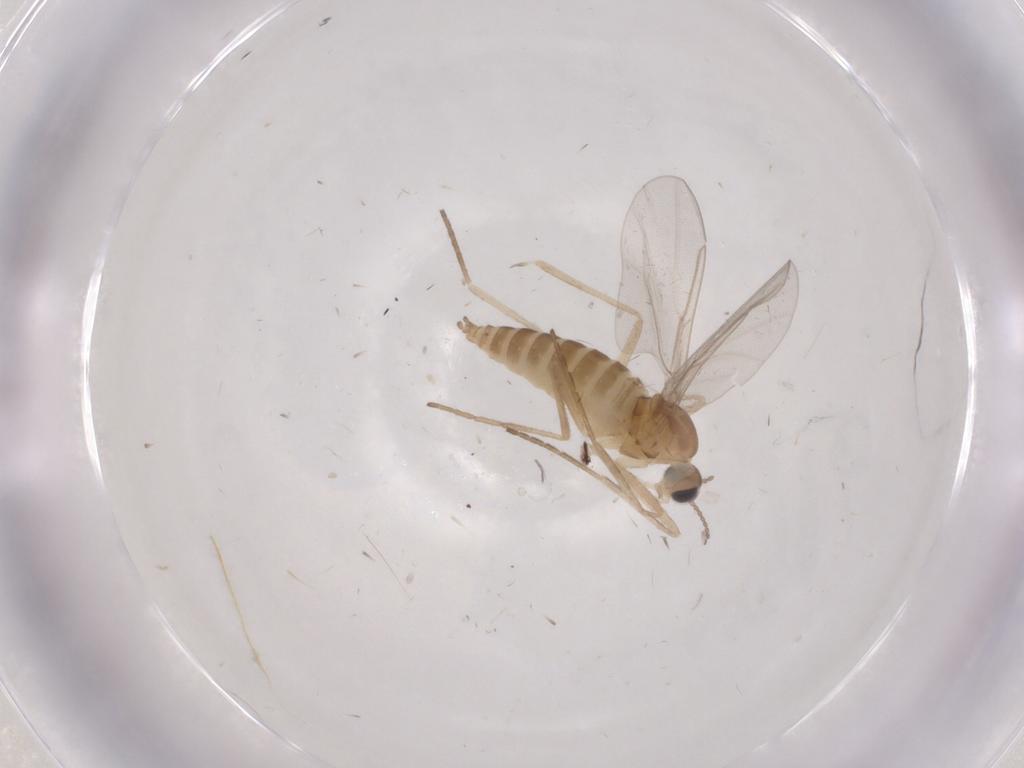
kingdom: Animalia
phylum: Arthropoda
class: Insecta
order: Diptera
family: Cecidomyiidae
